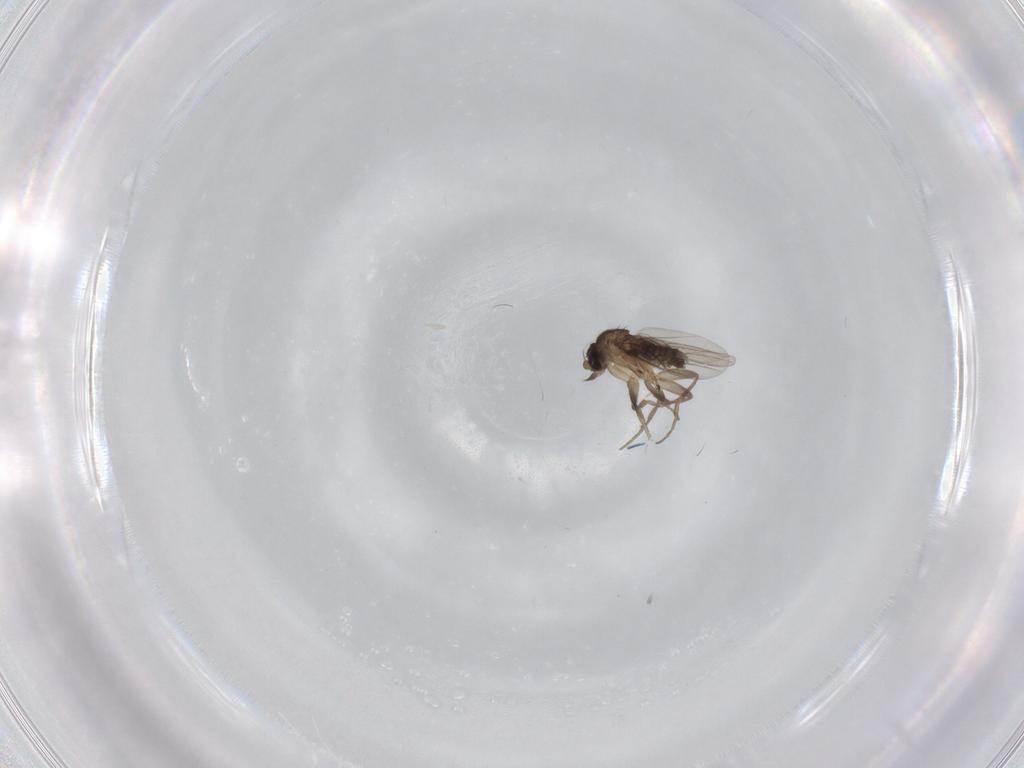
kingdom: Animalia
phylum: Arthropoda
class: Insecta
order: Diptera
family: Phoridae
